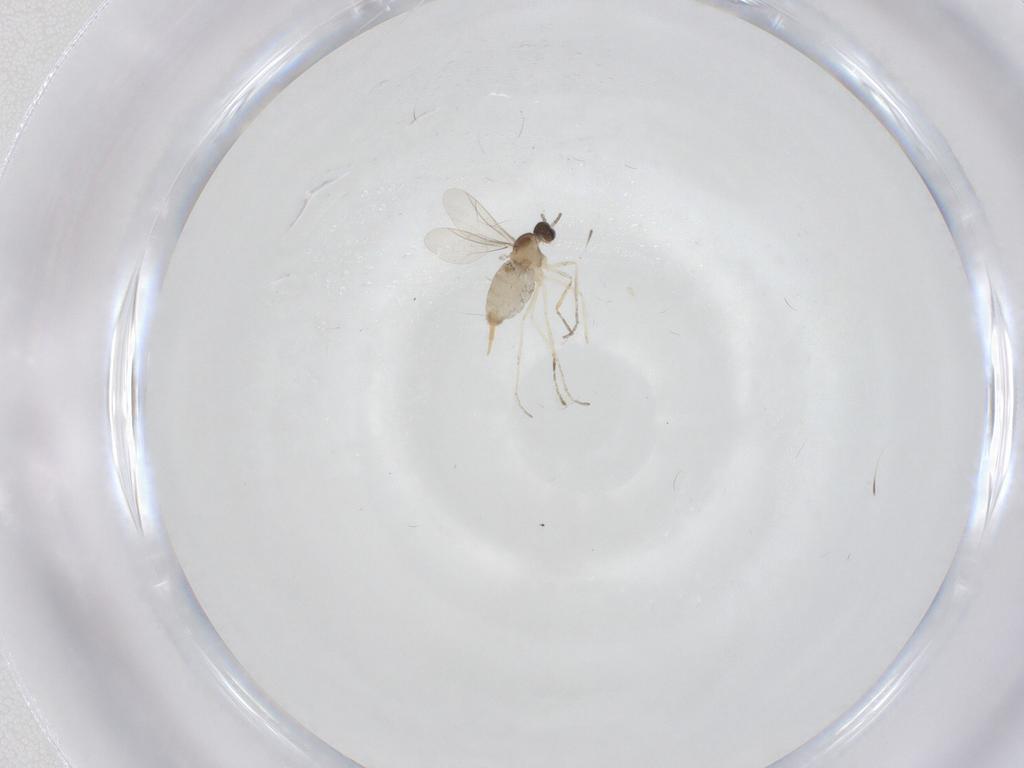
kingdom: Animalia
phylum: Arthropoda
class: Insecta
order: Diptera
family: Cecidomyiidae
